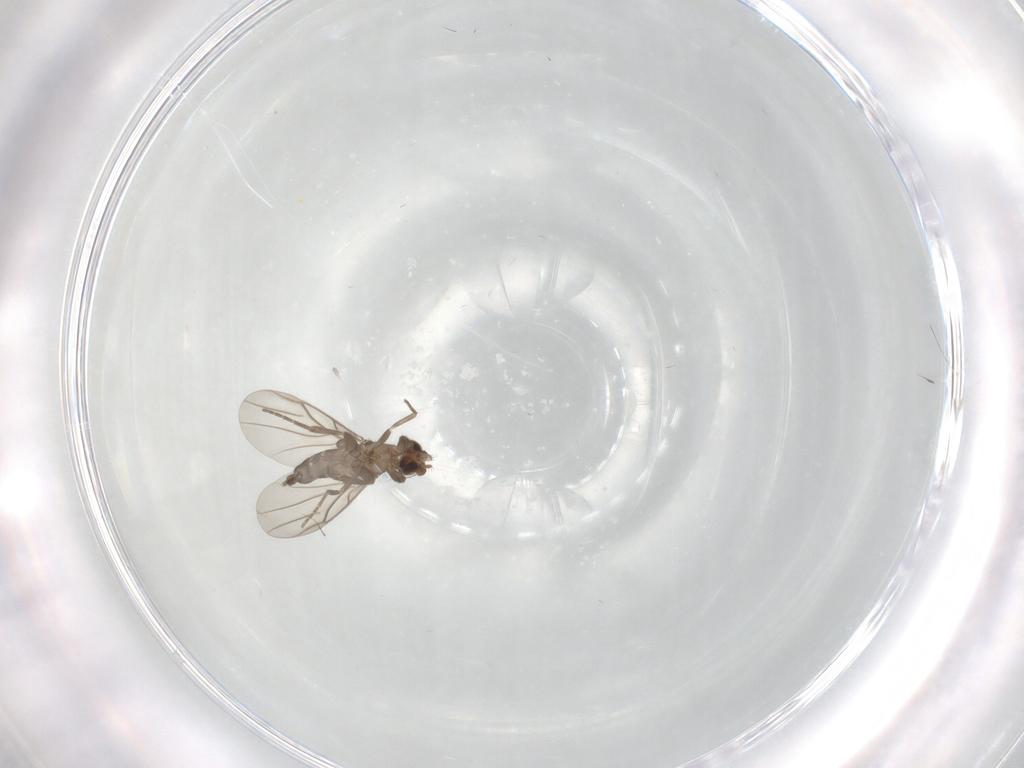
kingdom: Animalia
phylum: Arthropoda
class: Insecta
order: Diptera
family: Phoridae
